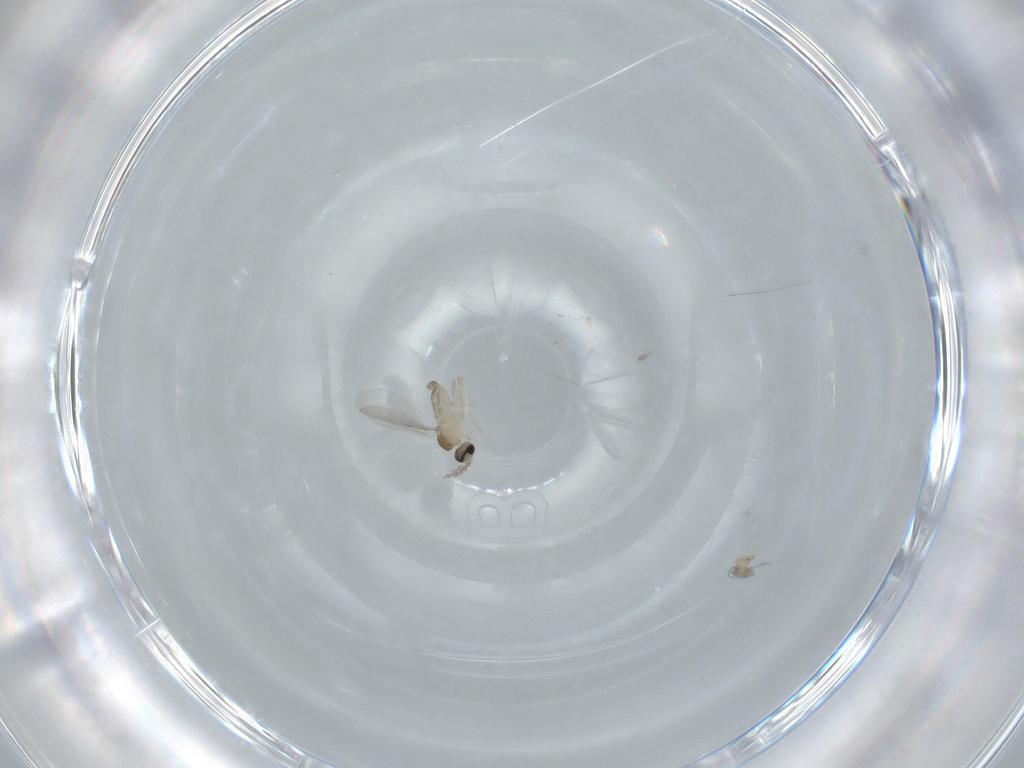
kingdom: Animalia
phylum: Arthropoda
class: Insecta
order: Diptera
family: Cecidomyiidae
